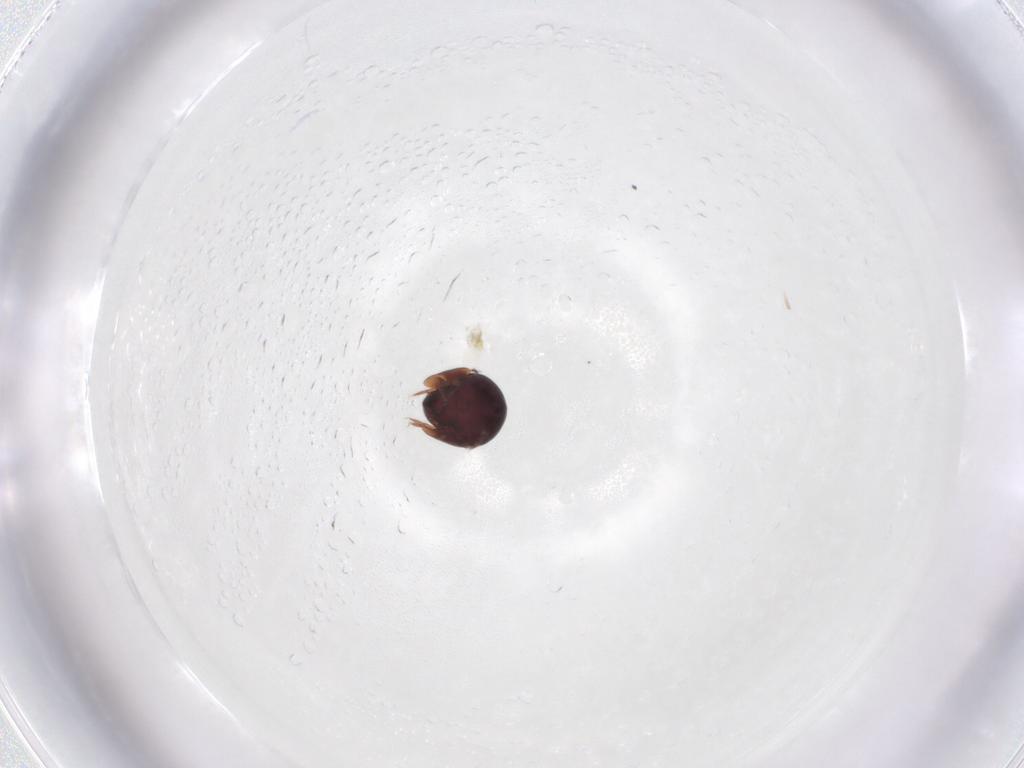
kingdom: Animalia
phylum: Arthropoda
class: Arachnida
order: Sarcoptiformes
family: Galumnidae
